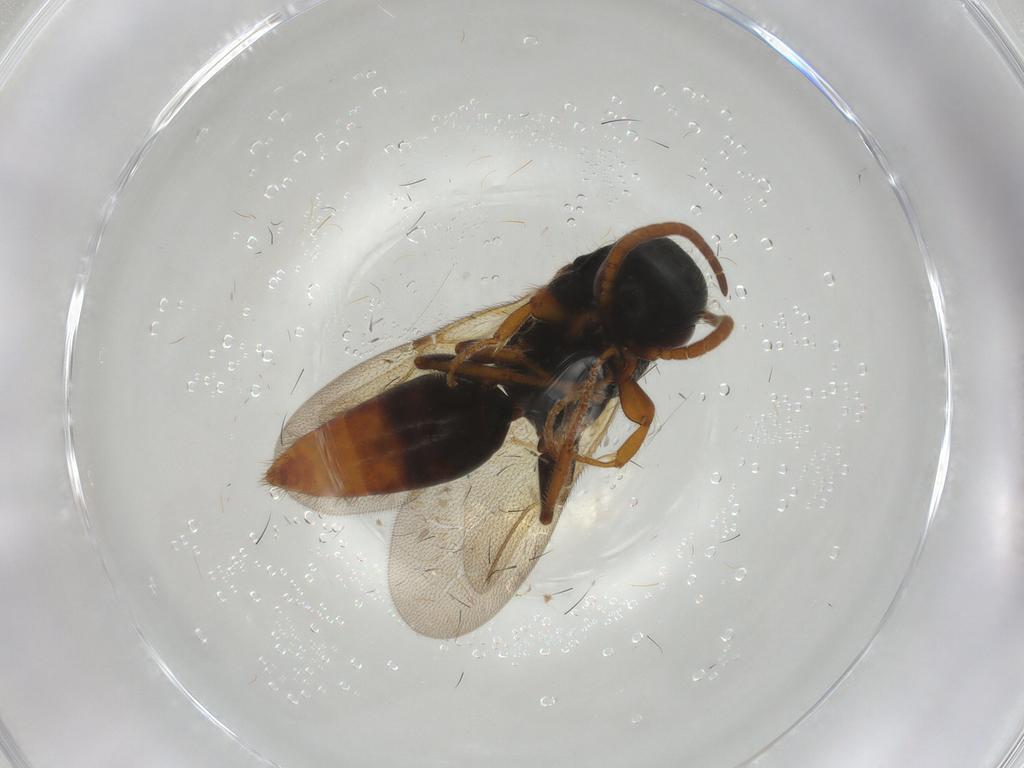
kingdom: Animalia
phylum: Arthropoda
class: Insecta
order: Hymenoptera
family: Bethylidae
